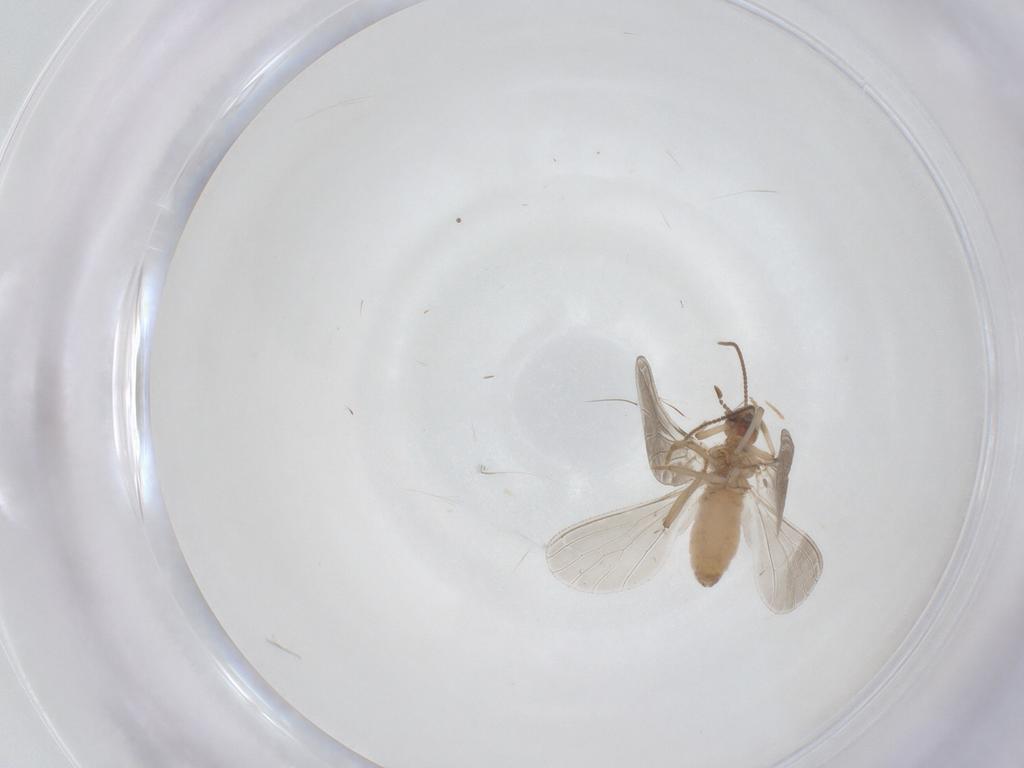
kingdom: Animalia
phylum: Arthropoda
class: Insecta
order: Neuroptera
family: Coniopterygidae
